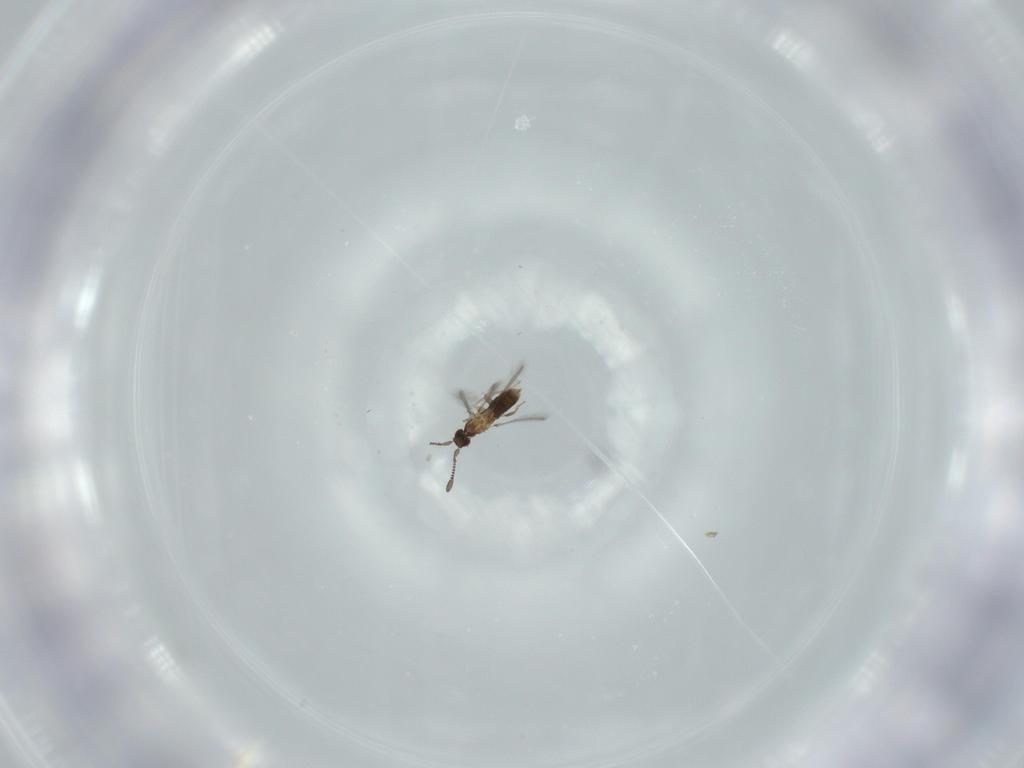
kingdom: Animalia
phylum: Arthropoda
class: Insecta
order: Hymenoptera
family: Mymaridae
